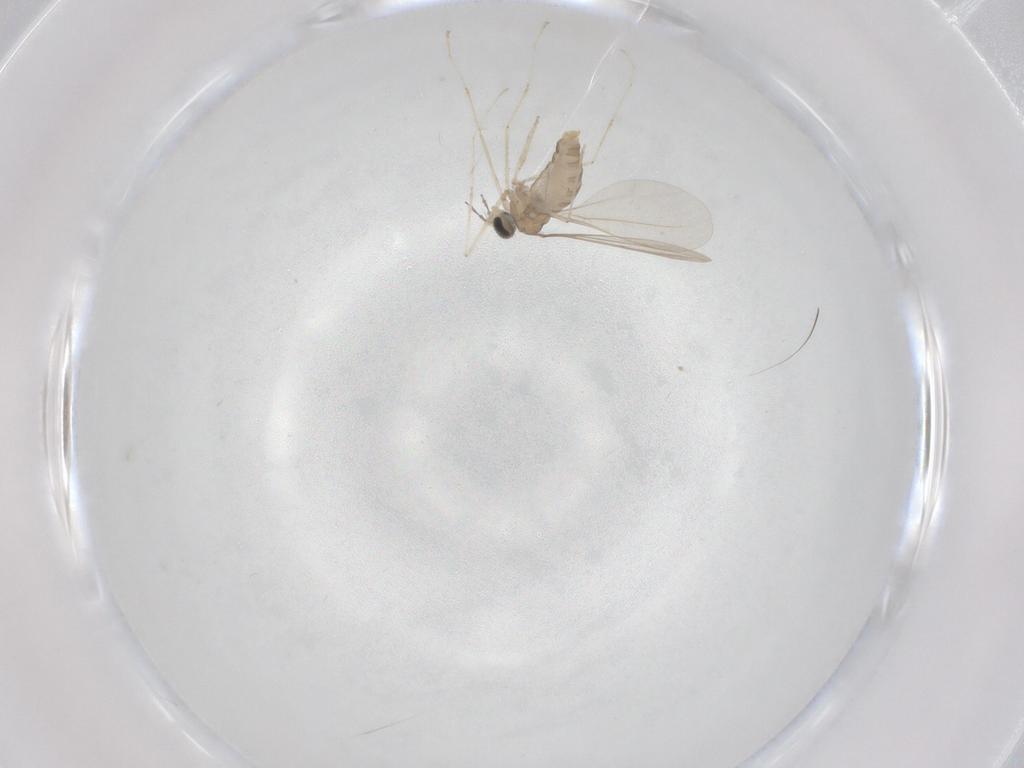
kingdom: Animalia
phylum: Arthropoda
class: Insecta
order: Diptera
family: Cecidomyiidae
